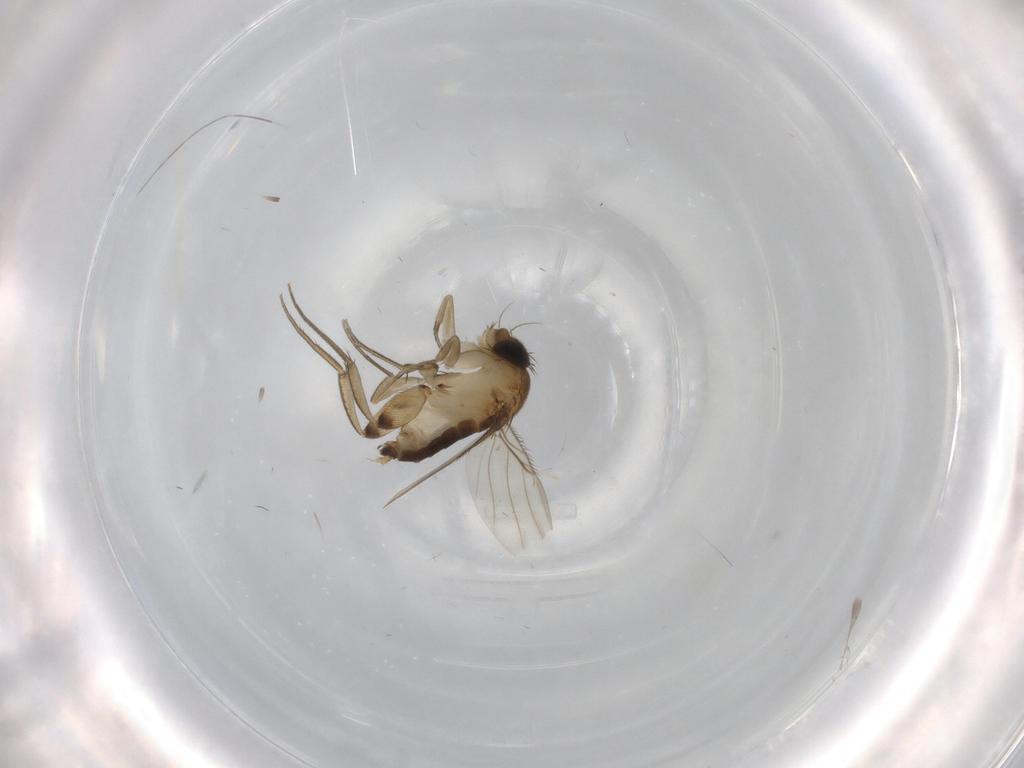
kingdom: Animalia
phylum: Arthropoda
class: Insecta
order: Diptera
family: Phoridae
